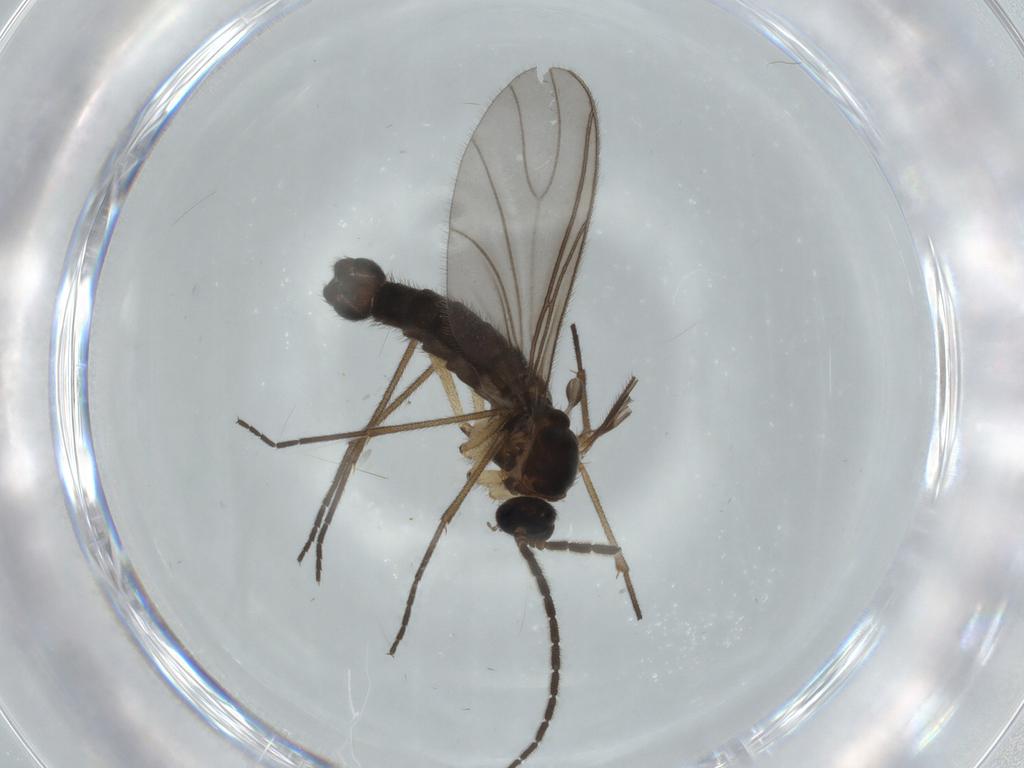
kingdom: Animalia
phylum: Arthropoda
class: Insecta
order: Diptera
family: Sciaridae
